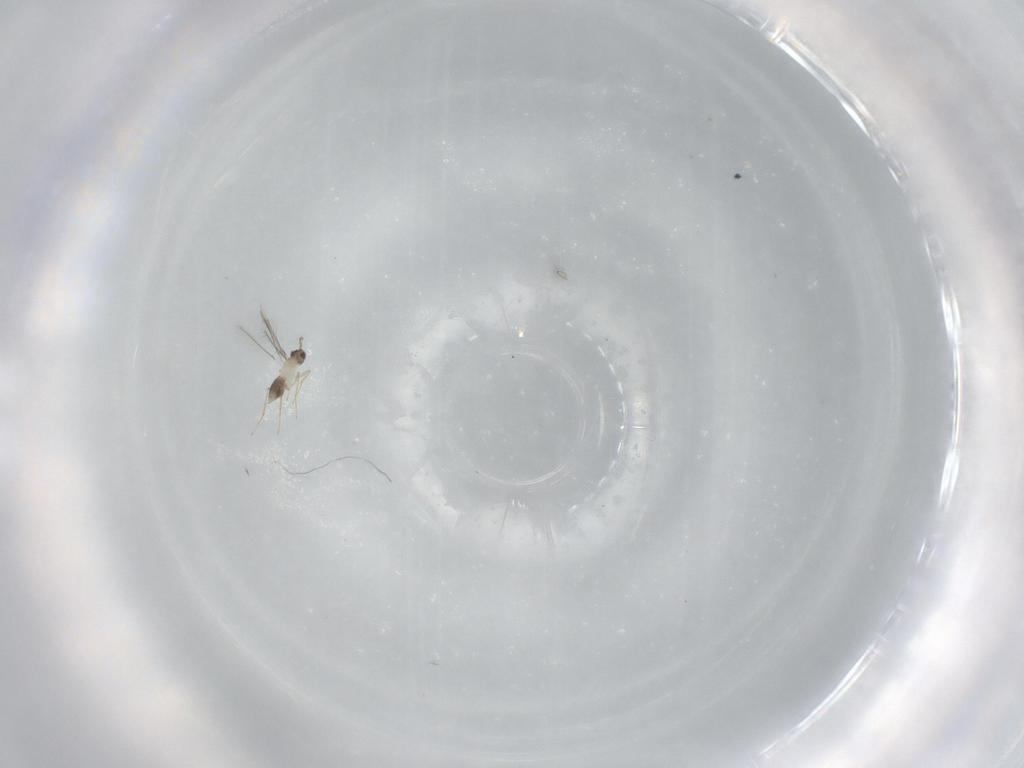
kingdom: Animalia
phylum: Arthropoda
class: Insecta
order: Hymenoptera
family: Mymaridae
